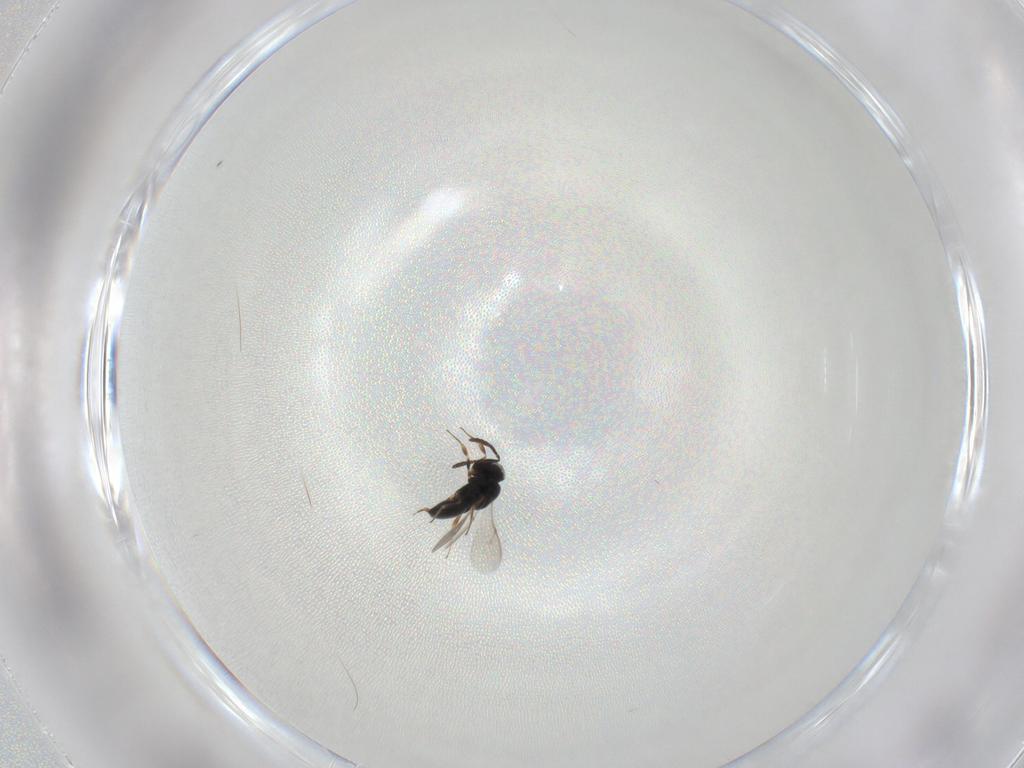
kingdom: Animalia
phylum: Arthropoda
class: Insecta
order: Hymenoptera
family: Scelionidae
